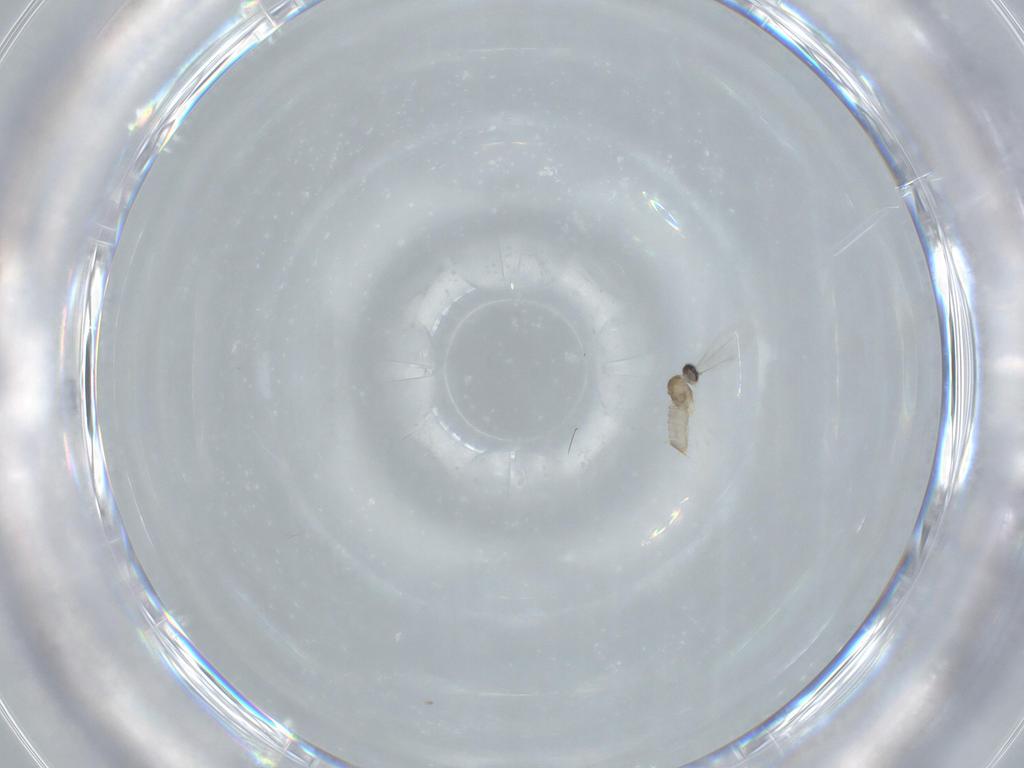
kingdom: Animalia
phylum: Arthropoda
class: Insecta
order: Diptera
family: Cecidomyiidae
